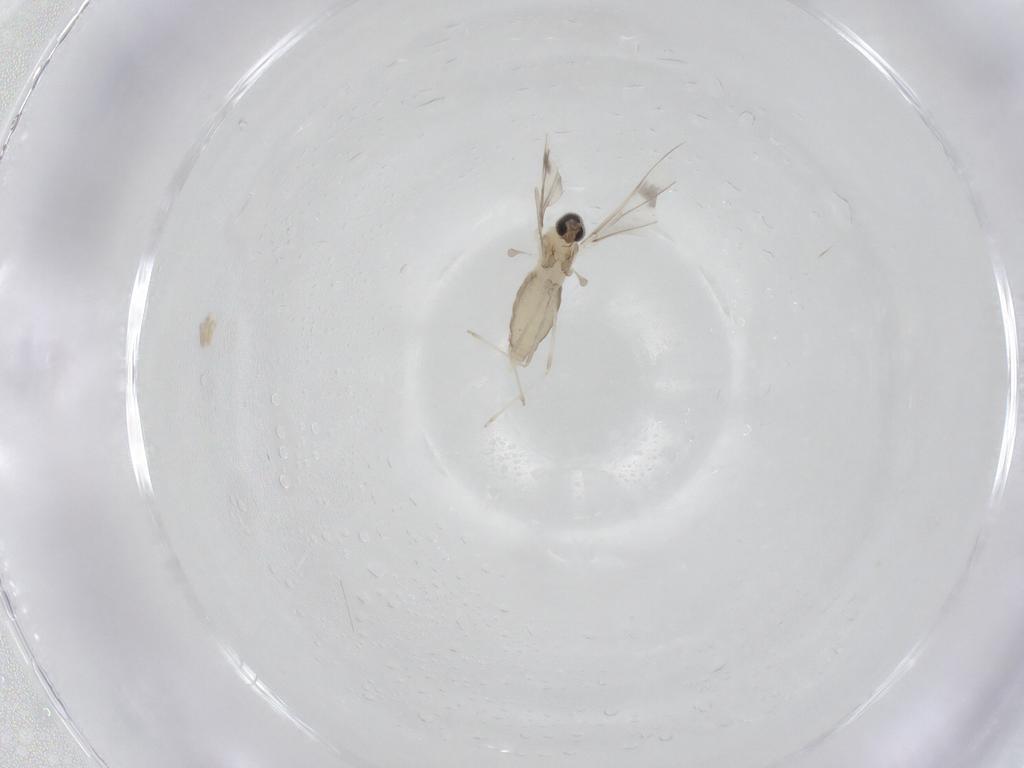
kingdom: Animalia
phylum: Arthropoda
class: Insecta
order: Diptera
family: Cecidomyiidae
